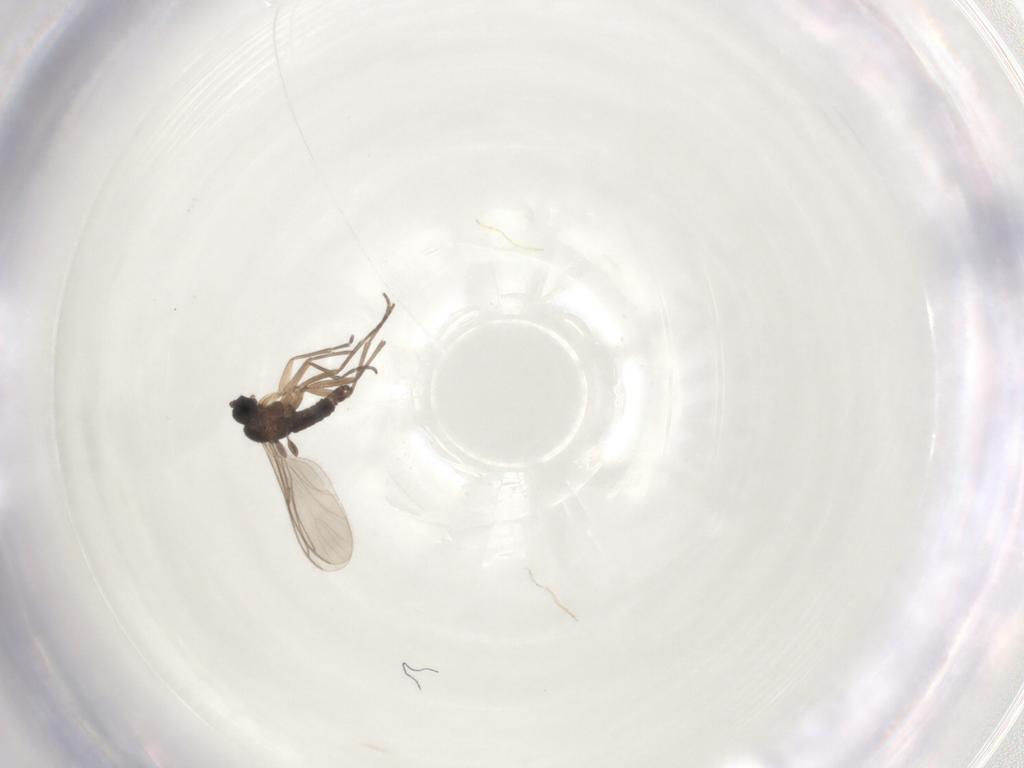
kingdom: Animalia
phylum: Arthropoda
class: Insecta
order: Diptera
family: Sciaridae
